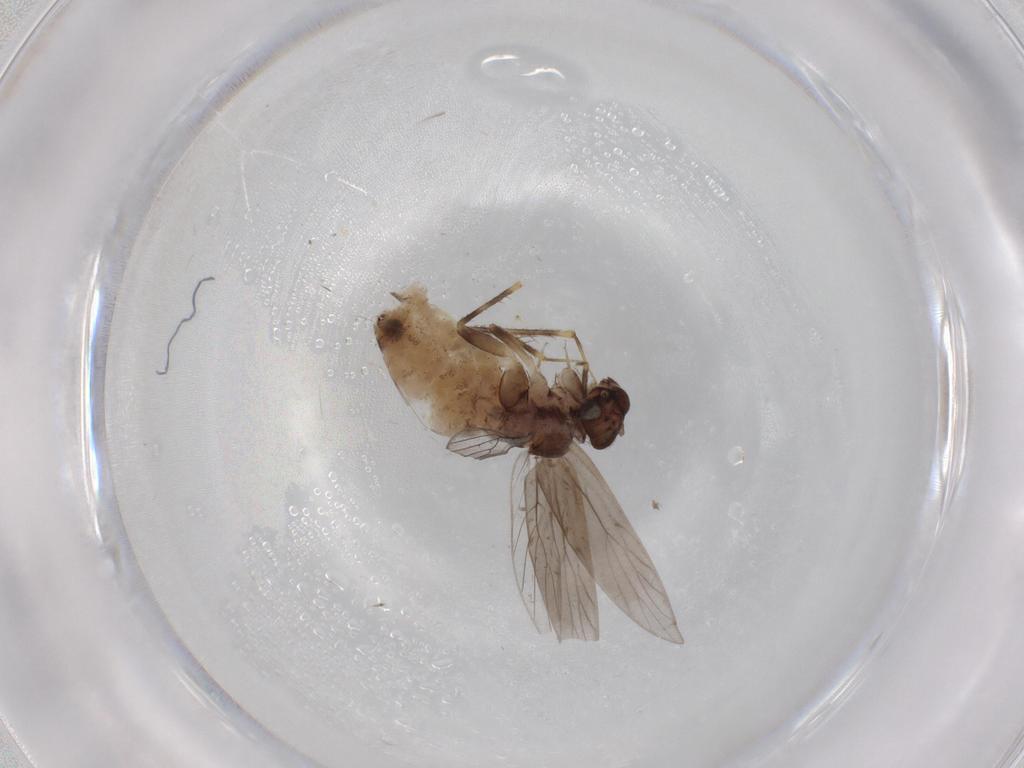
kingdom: Animalia
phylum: Arthropoda
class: Insecta
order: Psocodea
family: Lepidopsocidae
